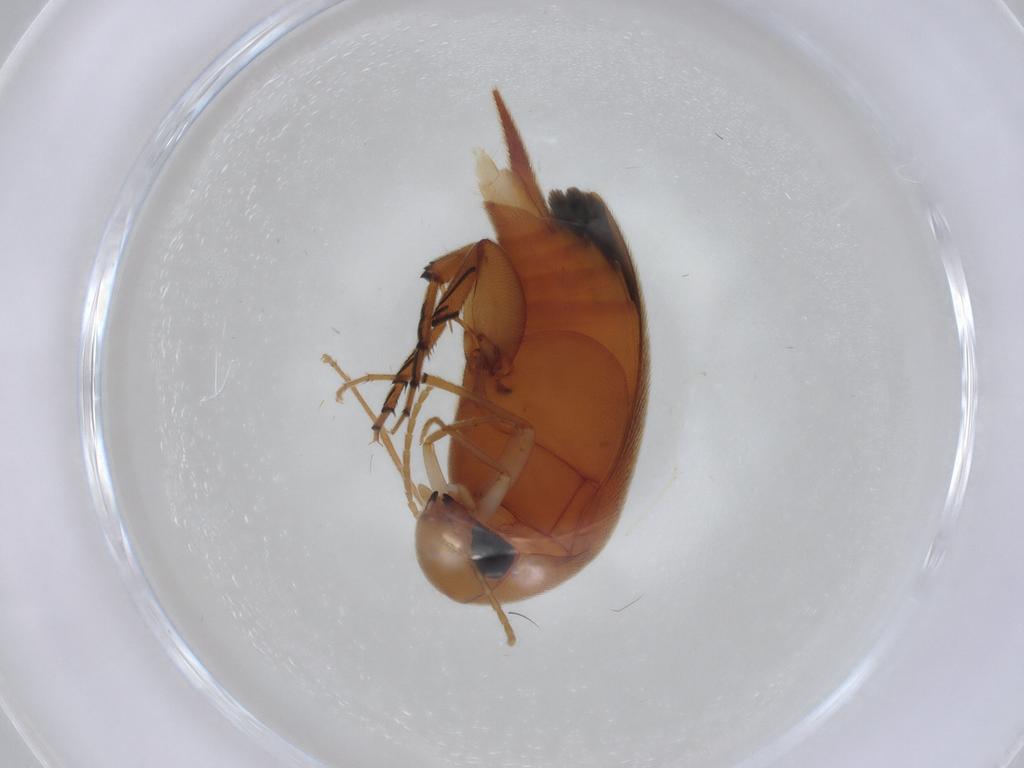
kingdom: Animalia
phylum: Arthropoda
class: Insecta
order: Coleoptera
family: Mordellidae
